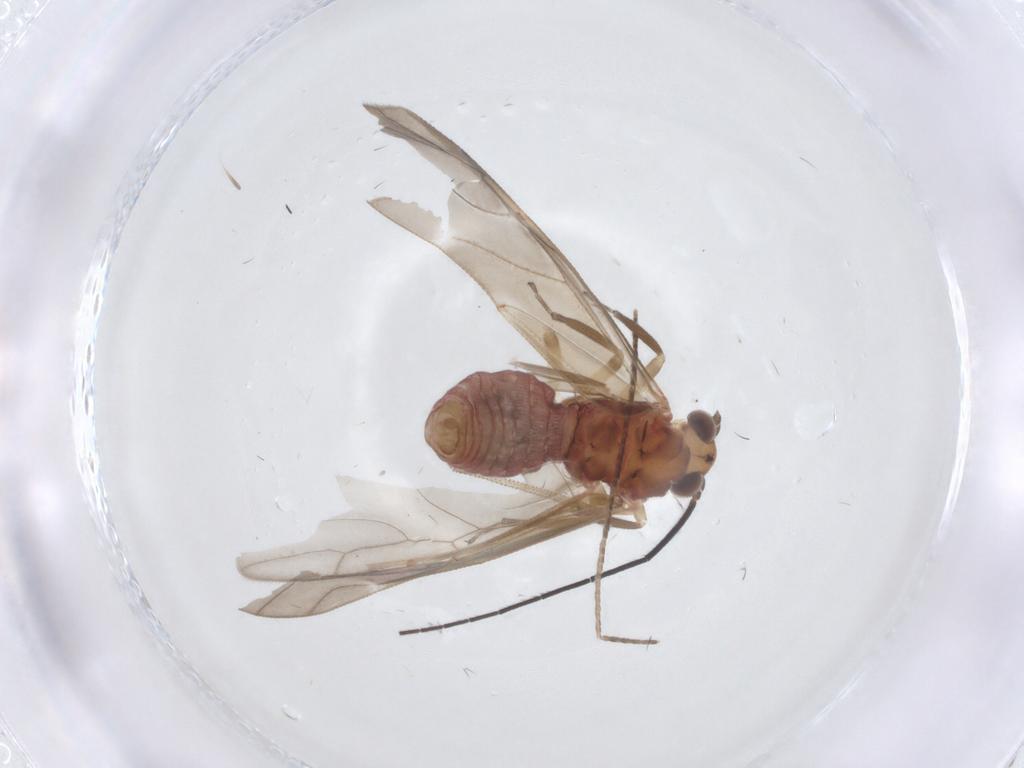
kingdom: Animalia
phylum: Arthropoda
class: Insecta
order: Hymenoptera
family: Braconidae
